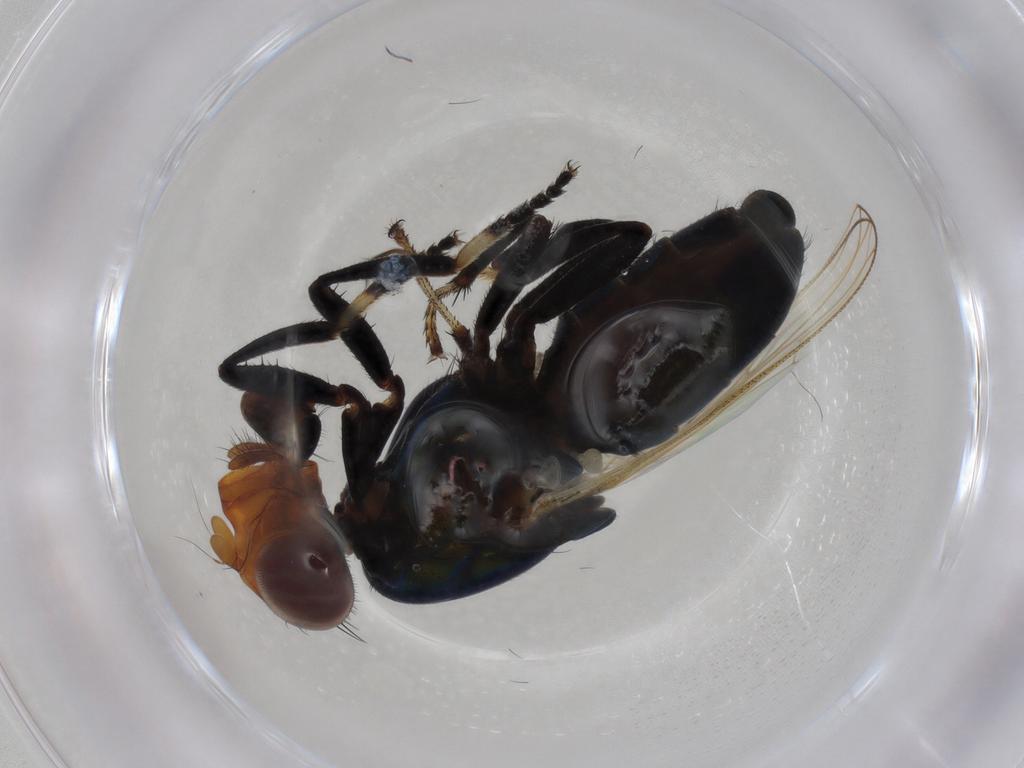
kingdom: Animalia
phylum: Arthropoda
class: Insecta
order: Diptera
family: Ulidiidae
